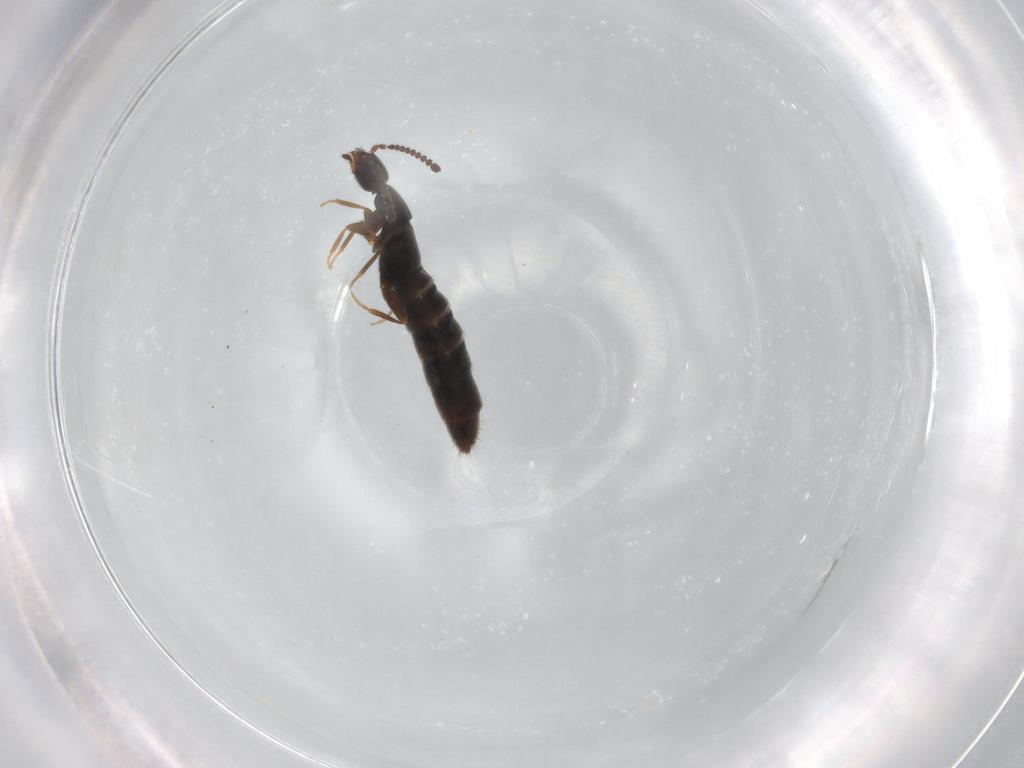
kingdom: Animalia
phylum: Arthropoda
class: Insecta
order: Coleoptera
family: Staphylinidae
